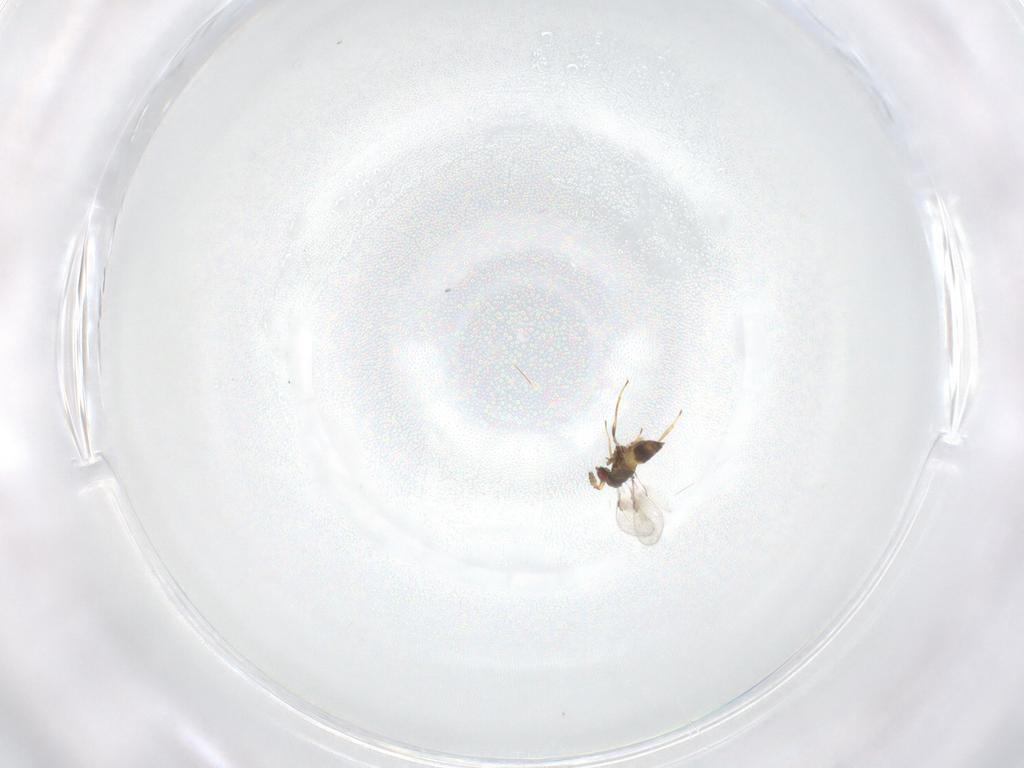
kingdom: Animalia
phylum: Arthropoda
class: Insecta
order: Hymenoptera
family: Azotidae
